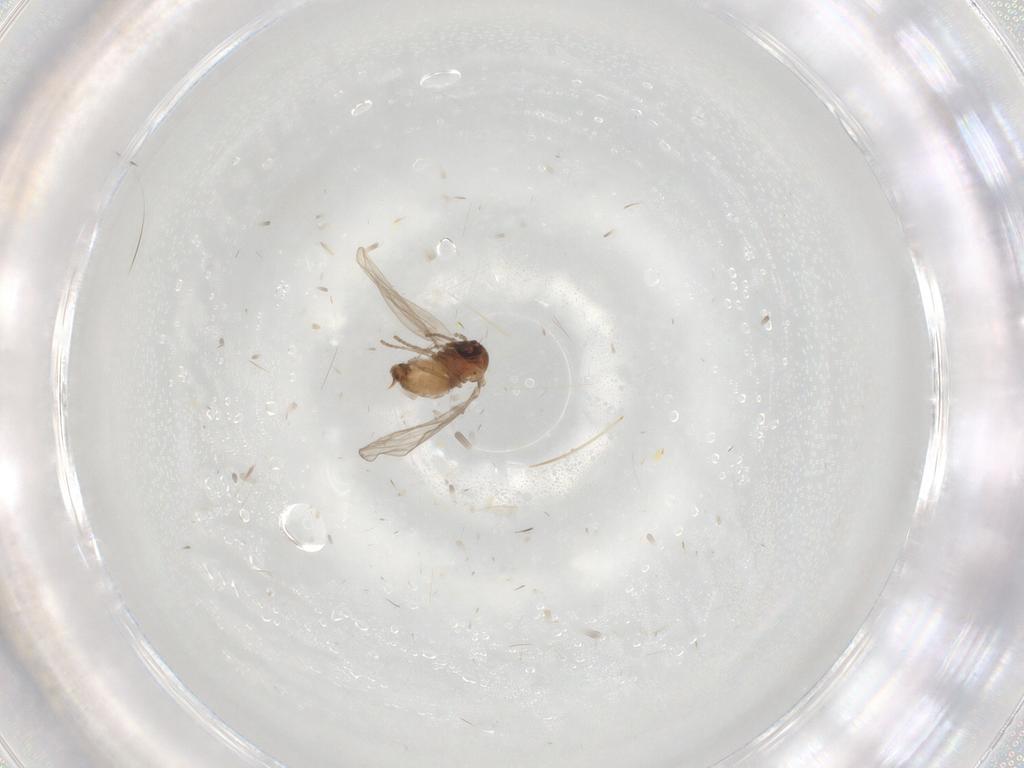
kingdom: Animalia
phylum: Arthropoda
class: Insecta
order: Diptera
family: Psychodidae
